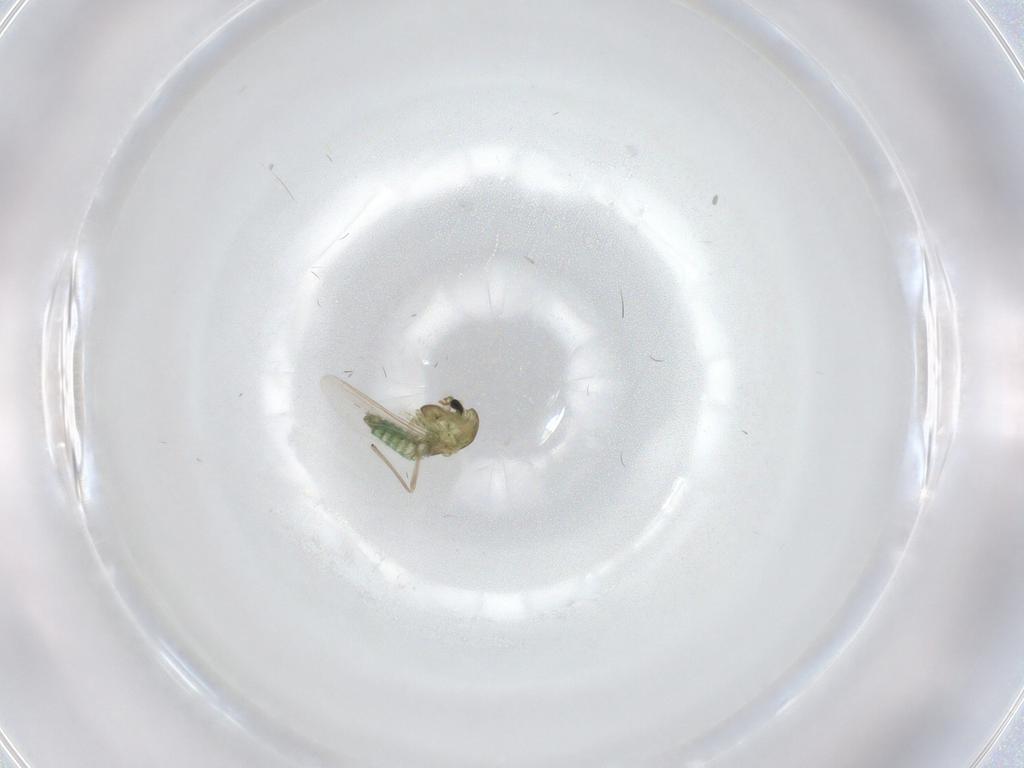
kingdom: Animalia
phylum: Arthropoda
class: Insecta
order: Diptera
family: Chironomidae
